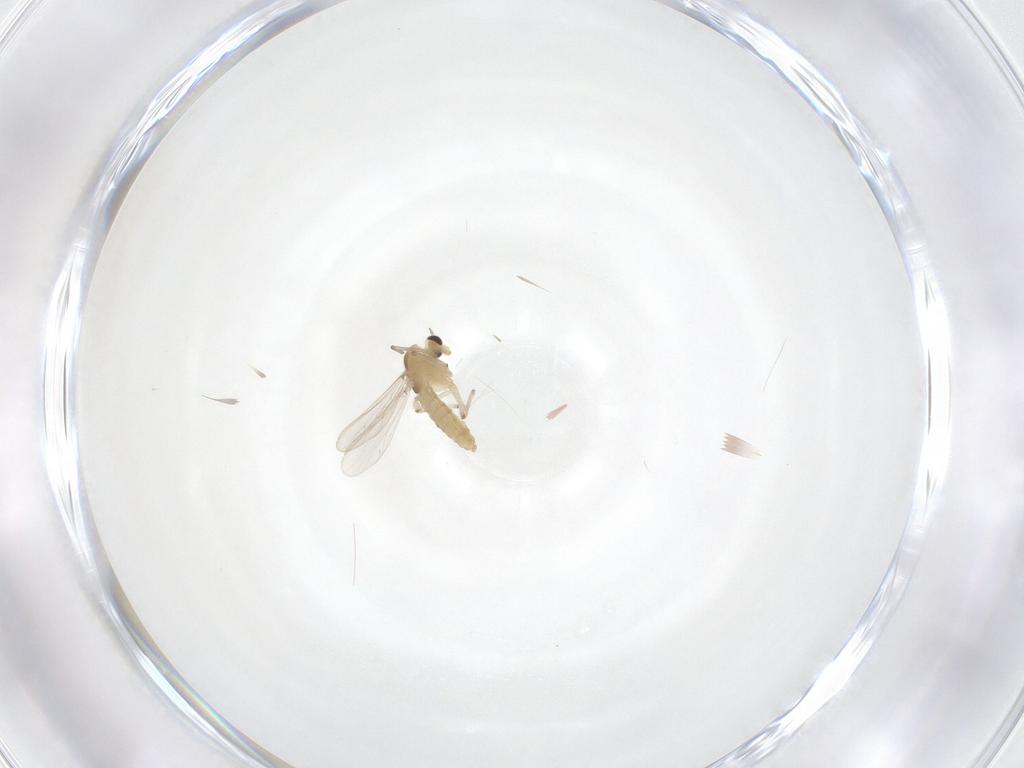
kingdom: Animalia
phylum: Arthropoda
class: Insecta
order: Diptera
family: Chironomidae
